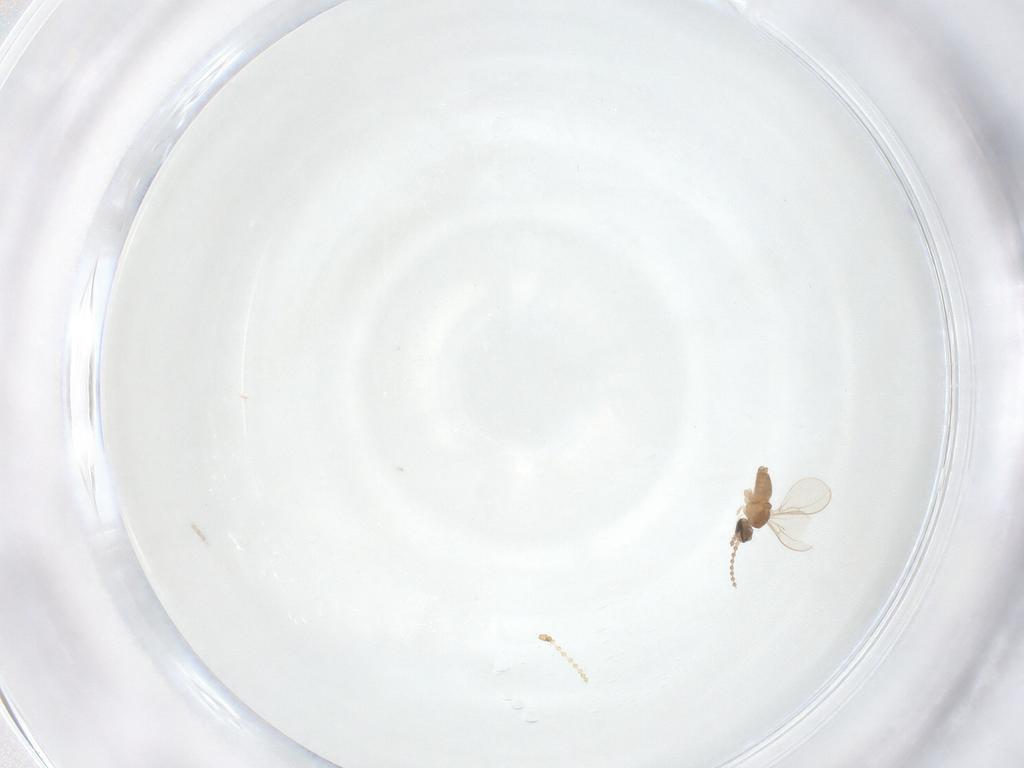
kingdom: Animalia
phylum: Arthropoda
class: Insecta
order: Diptera
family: Cecidomyiidae
